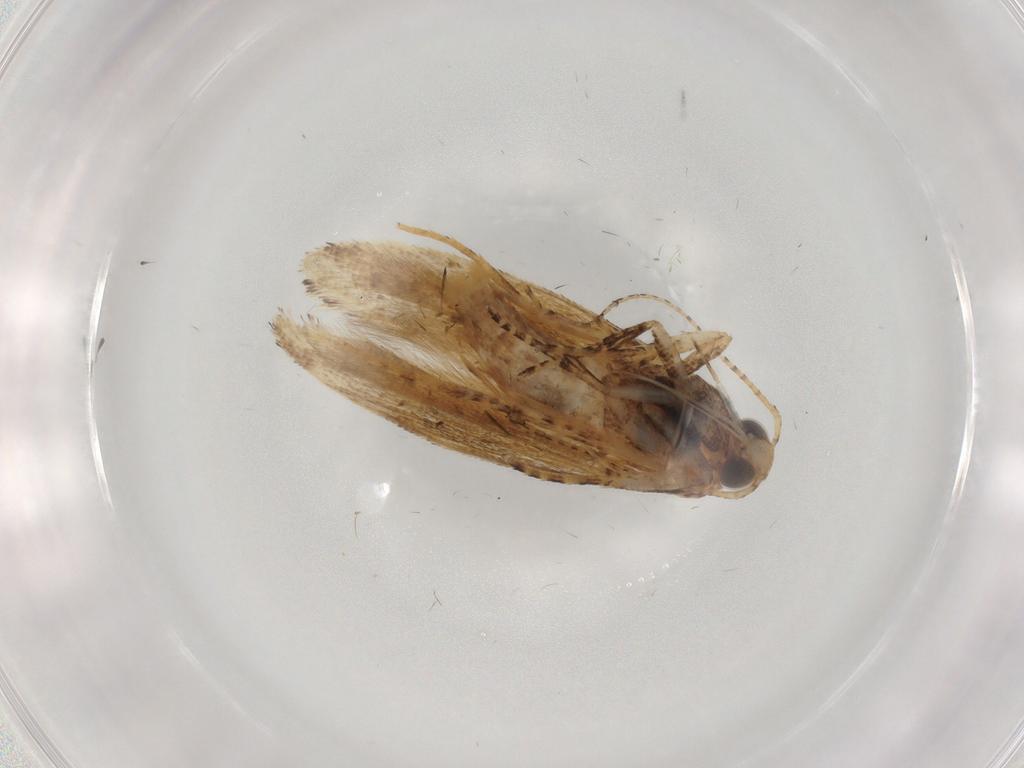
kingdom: Animalia
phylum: Arthropoda
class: Insecta
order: Lepidoptera
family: Gelechiidae
